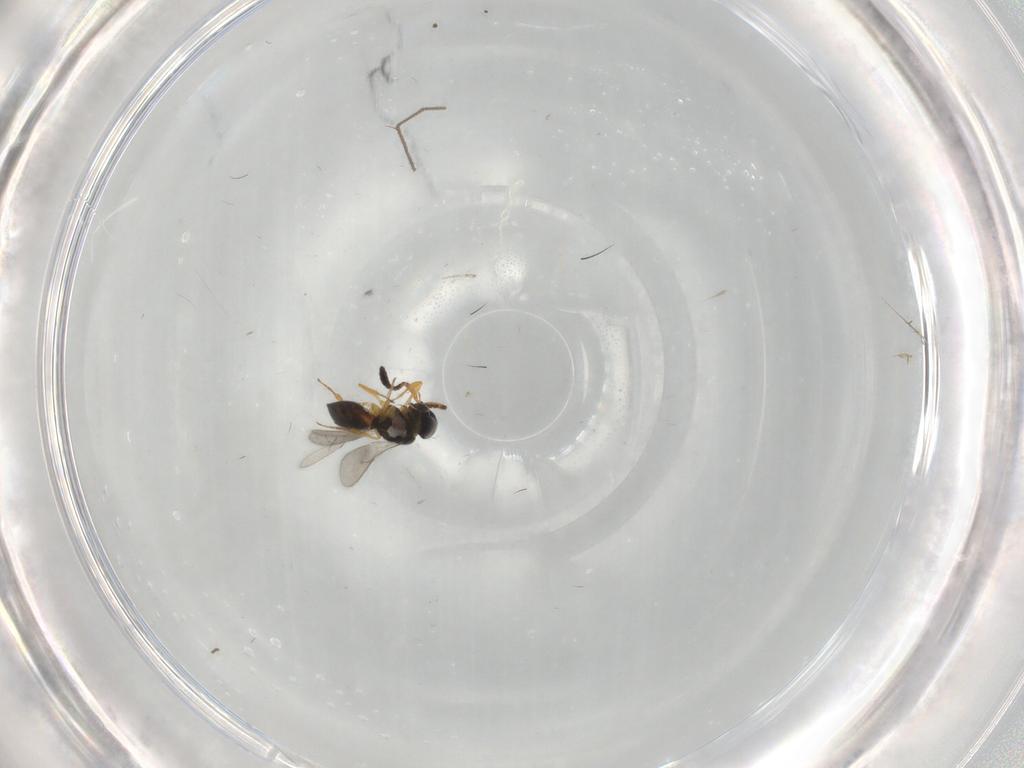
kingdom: Animalia
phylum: Arthropoda
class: Insecta
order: Hymenoptera
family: Scelionidae
